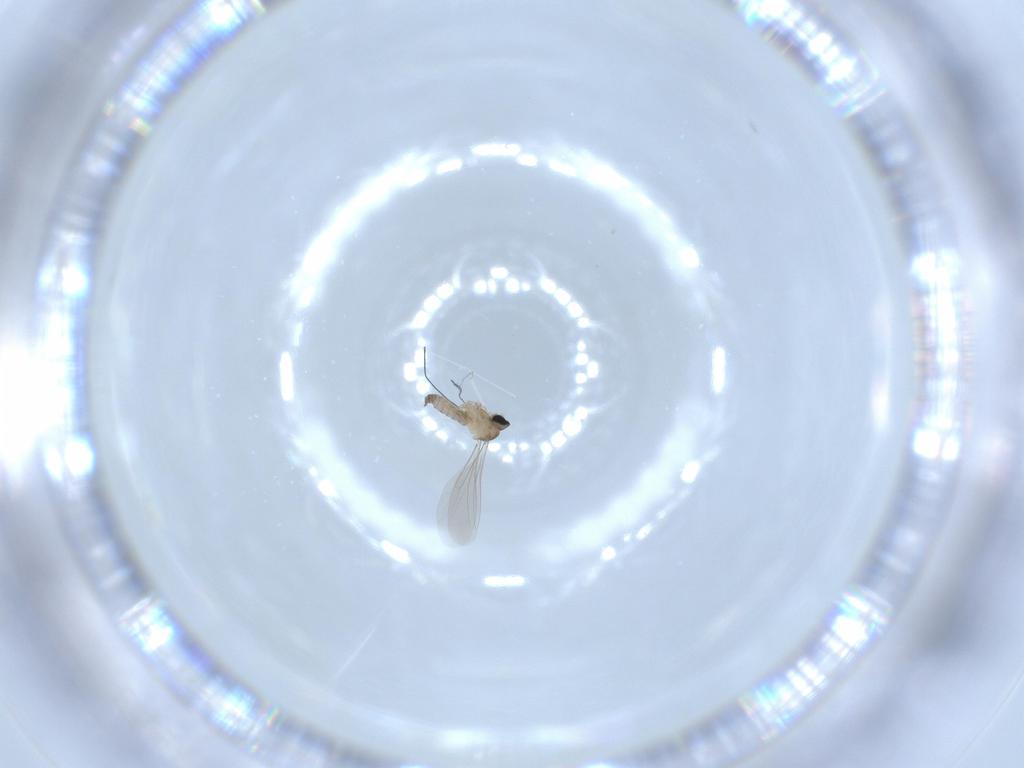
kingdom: Animalia
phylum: Arthropoda
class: Insecta
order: Diptera
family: Cecidomyiidae
